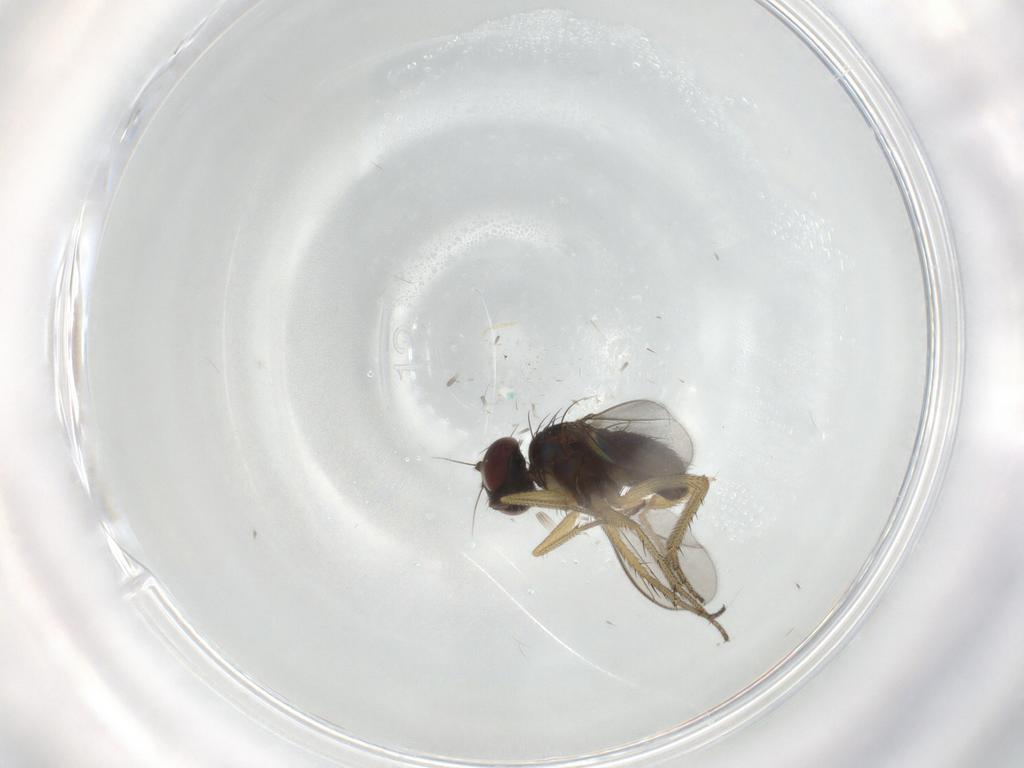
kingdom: Animalia
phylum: Arthropoda
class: Insecta
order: Diptera
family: Chironomidae
